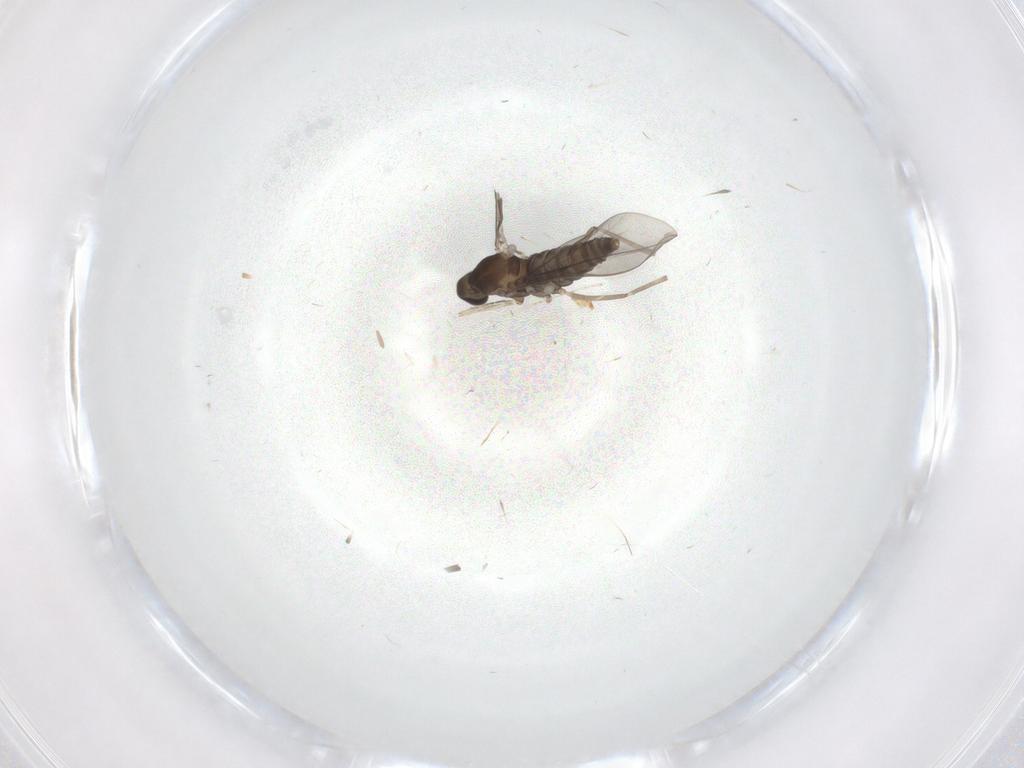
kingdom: Animalia
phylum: Arthropoda
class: Insecta
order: Diptera
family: Cecidomyiidae
